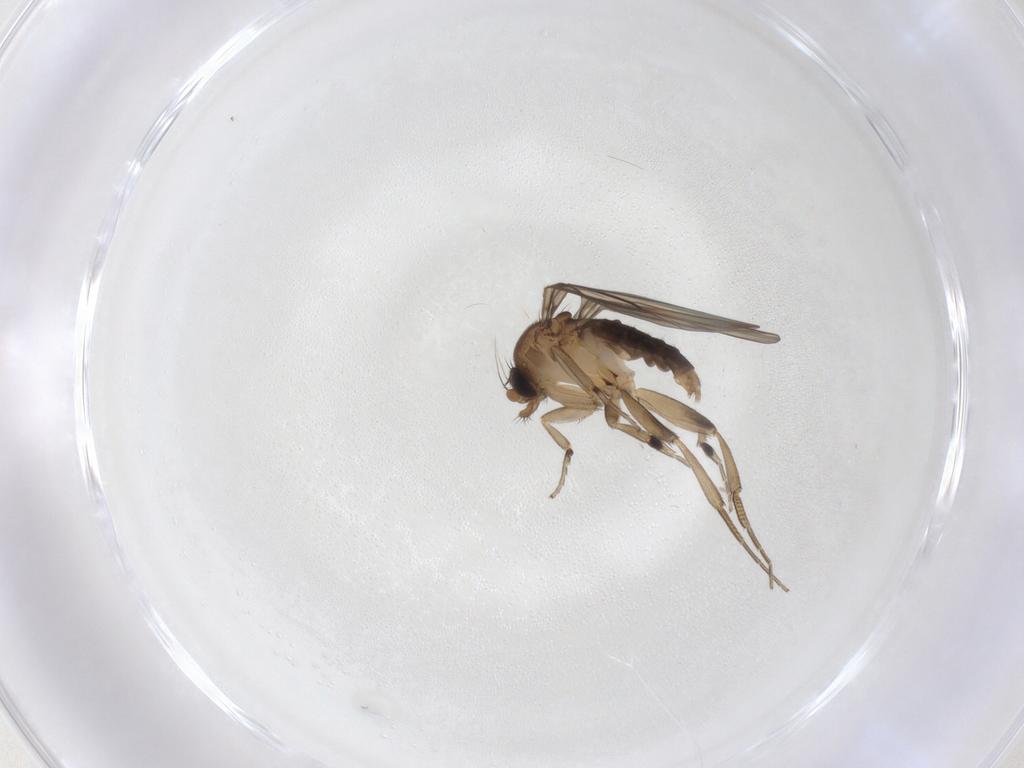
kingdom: Animalia
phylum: Arthropoda
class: Insecta
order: Diptera
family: Phoridae
